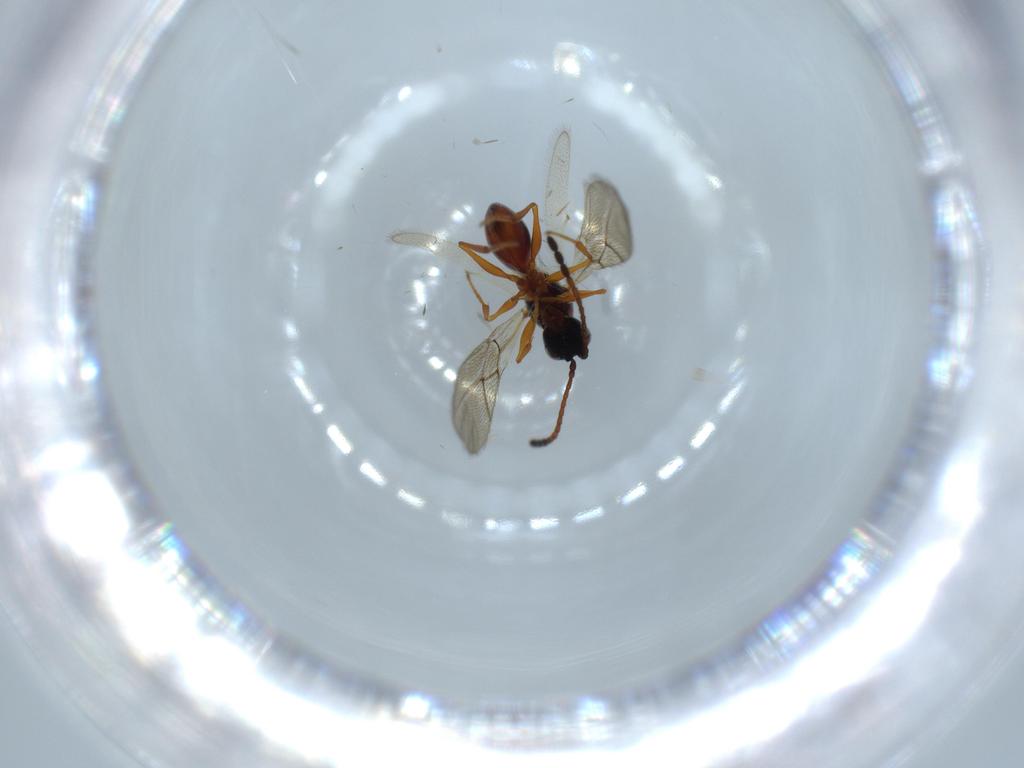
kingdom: Animalia
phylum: Arthropoda
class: Insecta
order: Hymenoptera
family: Figitidae
